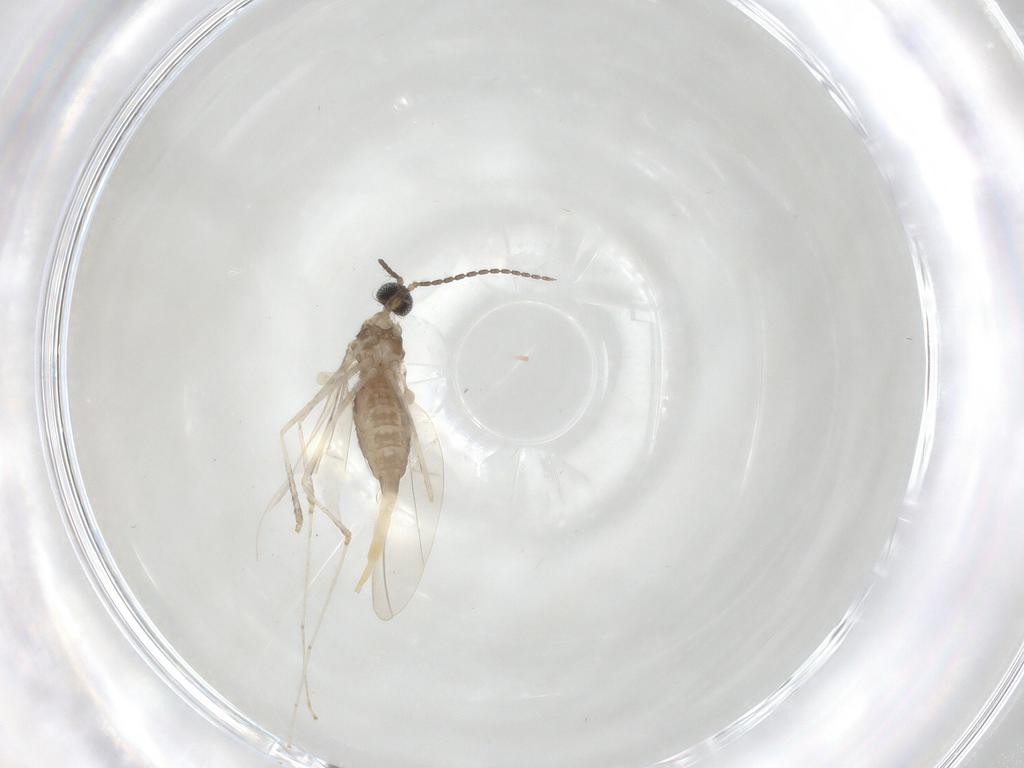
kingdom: Animalia
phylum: Arthropoda
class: Insecta
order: Diptera
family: Cecidomyiidae
